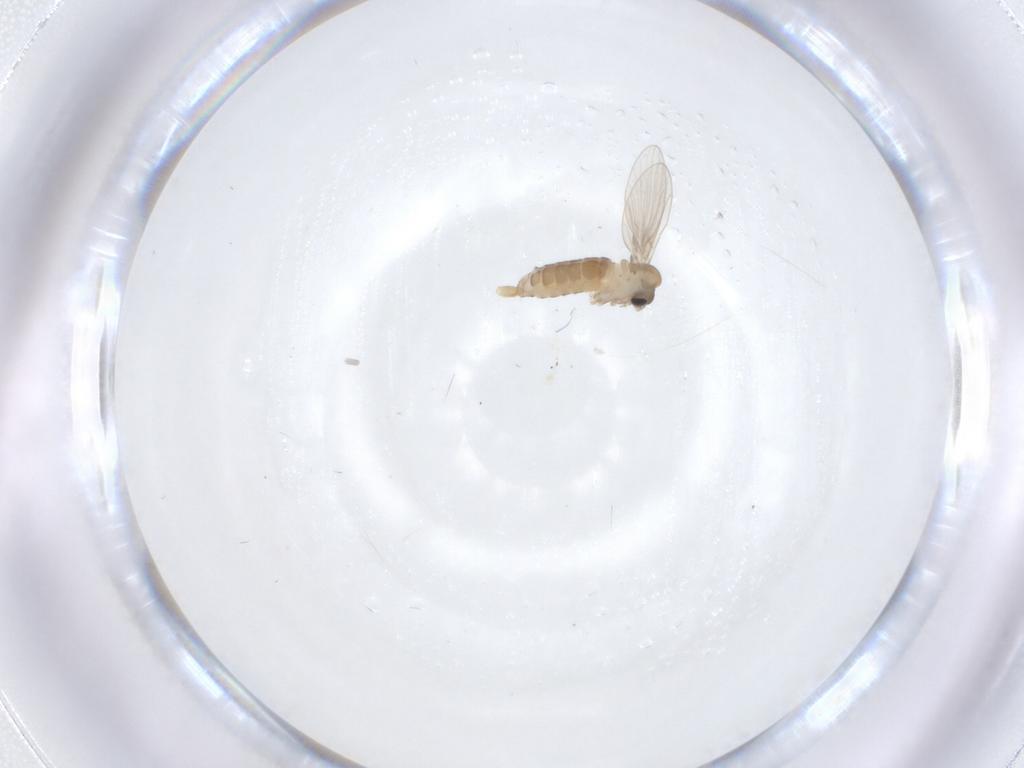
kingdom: Animalia
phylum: Arthropoda
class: Insecta
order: Diptera
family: Psychodidae
